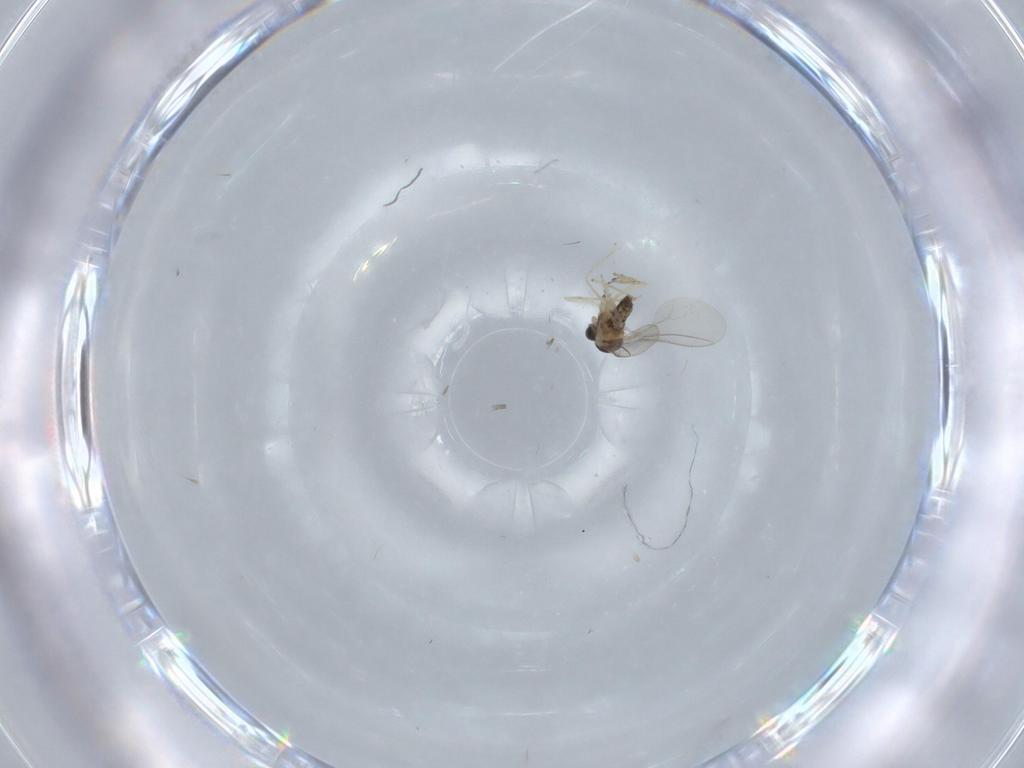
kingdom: Animalia
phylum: Arthropoda
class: Insecta
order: Diptera
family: Cecidomyiidae
